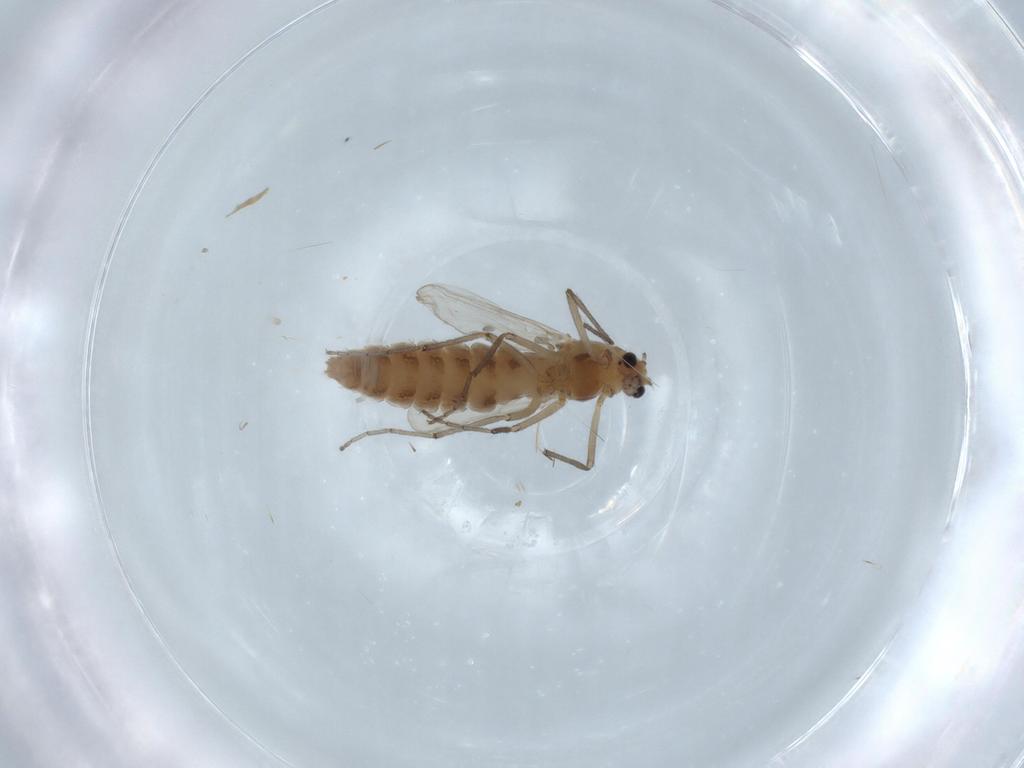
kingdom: Animalia
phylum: Arthropoda
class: Insecta
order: Diptera
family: Chironomidae
